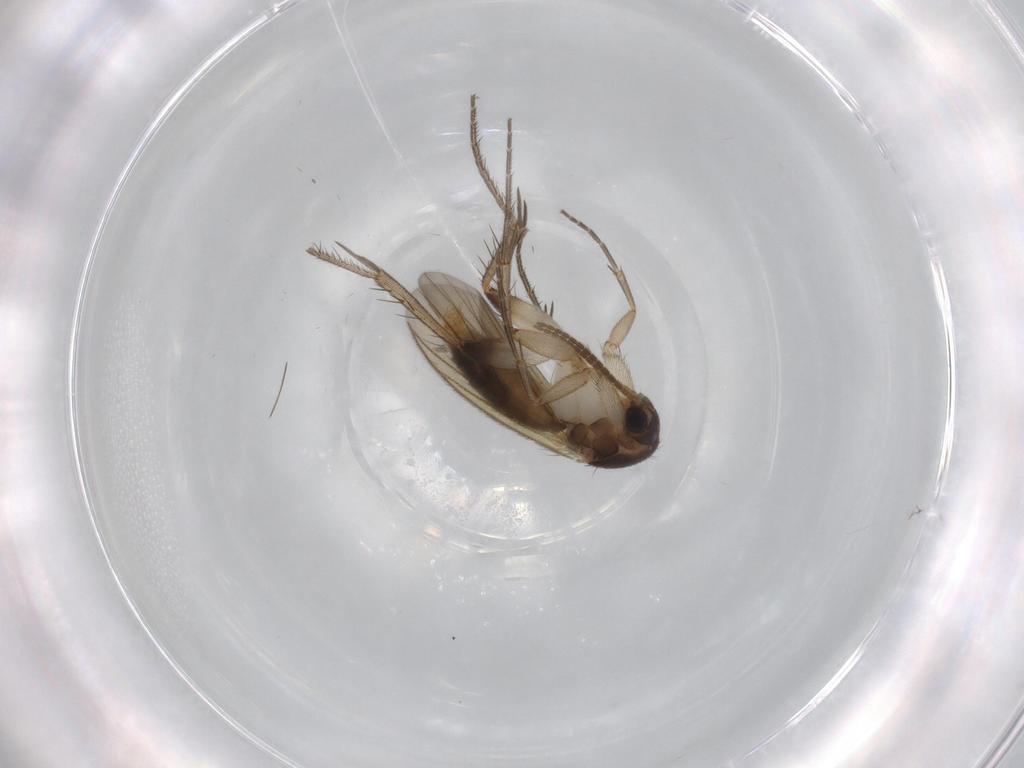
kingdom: Animalia
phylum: Arthropoda
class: Insecta
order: Diptera
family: Mycetophilidae
